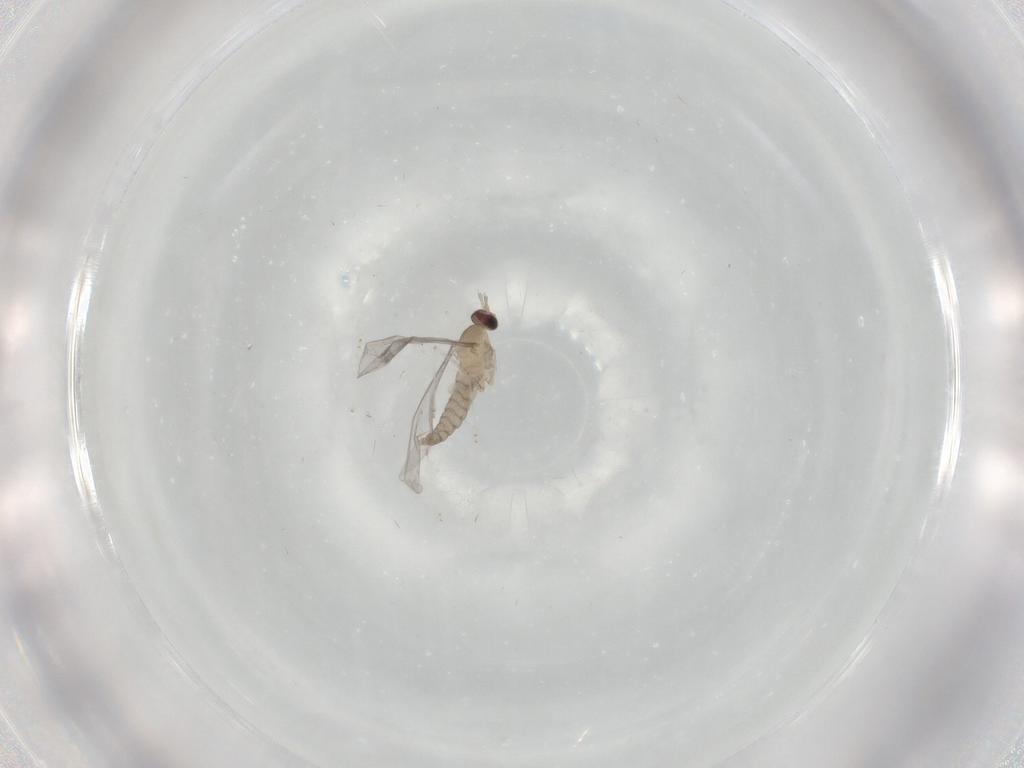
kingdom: Animalia
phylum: Arthropoda
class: Insecta
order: Diptera
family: Cecidomyiidae
